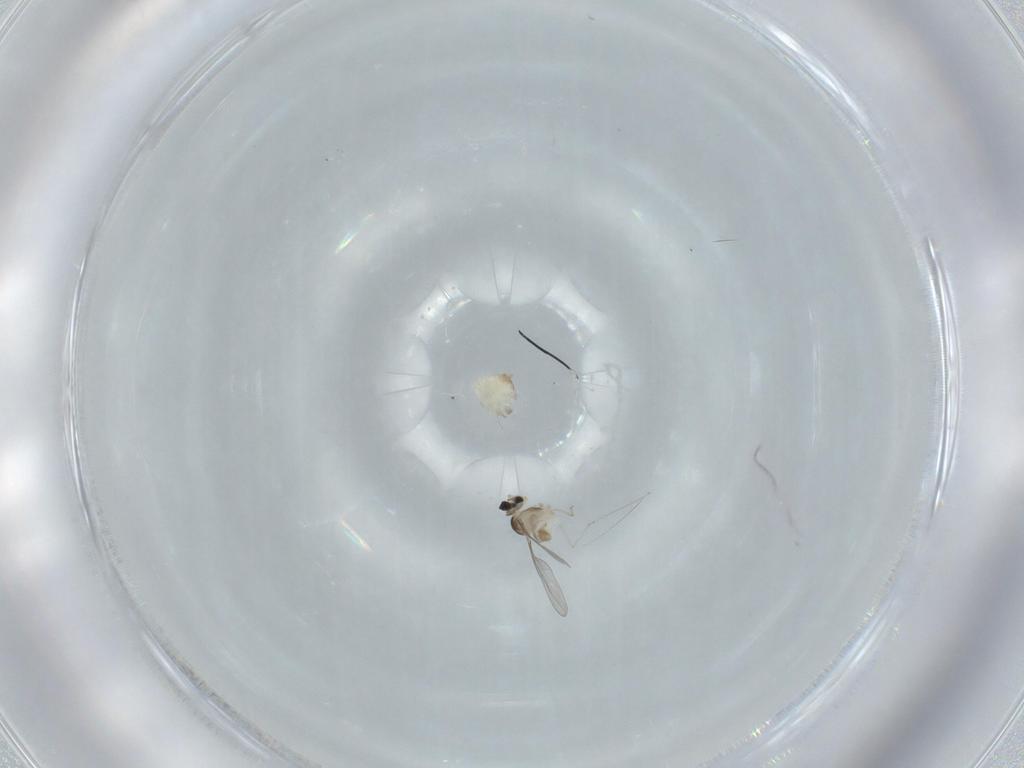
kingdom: Animalia
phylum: Arthropoda
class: Insecta
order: Diptera
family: Cecidomyiidae
